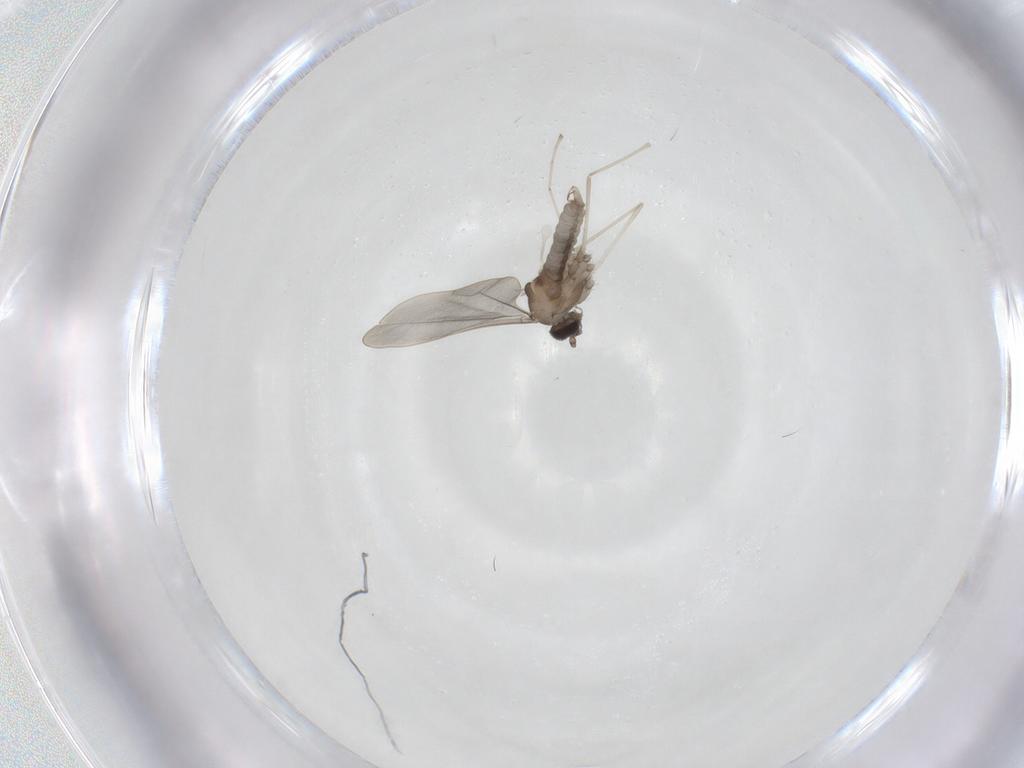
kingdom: Animalia
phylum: Arthropoda
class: Insecta
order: Diptera
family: Cecidomyiidae
